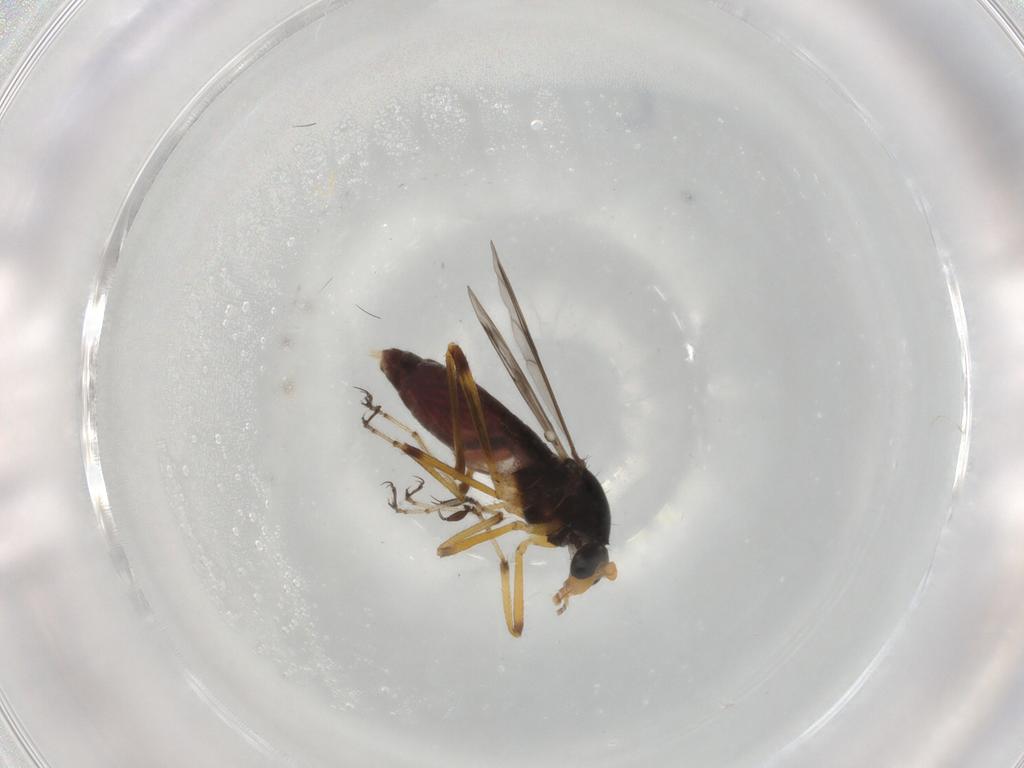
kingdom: Animalia
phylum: Arthropoda
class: Insecta
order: Diptera
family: Ceratopogonidae
